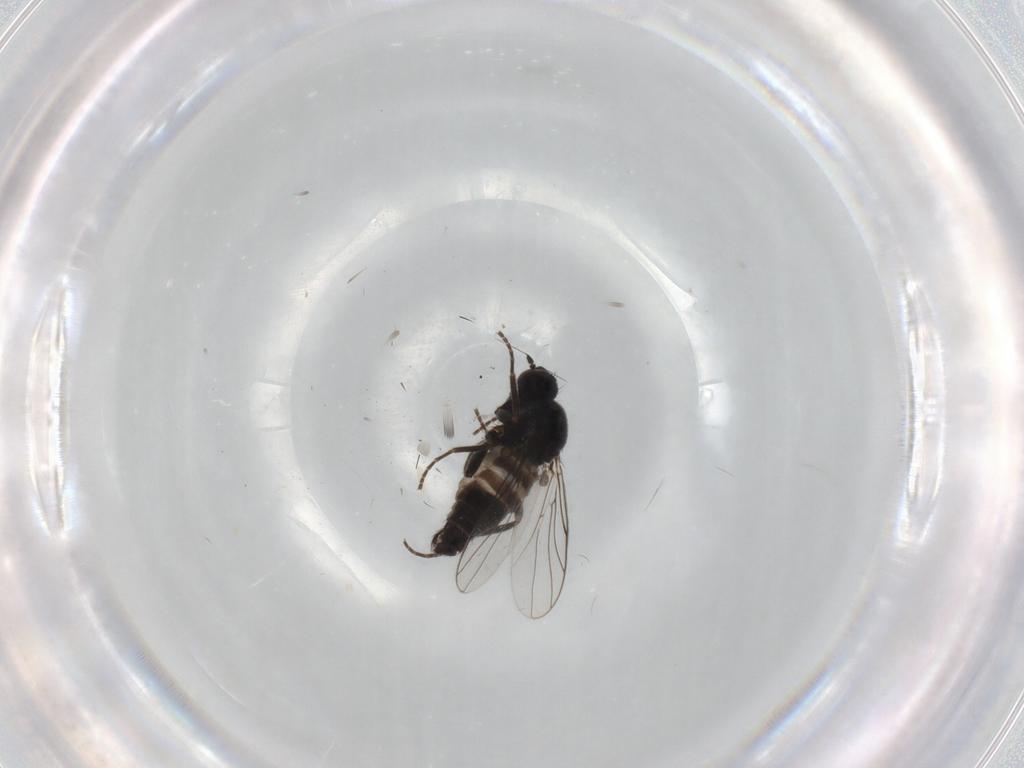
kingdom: Animalia
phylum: Arthropoda
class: Insecta
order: Diptera
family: Hybotidae
